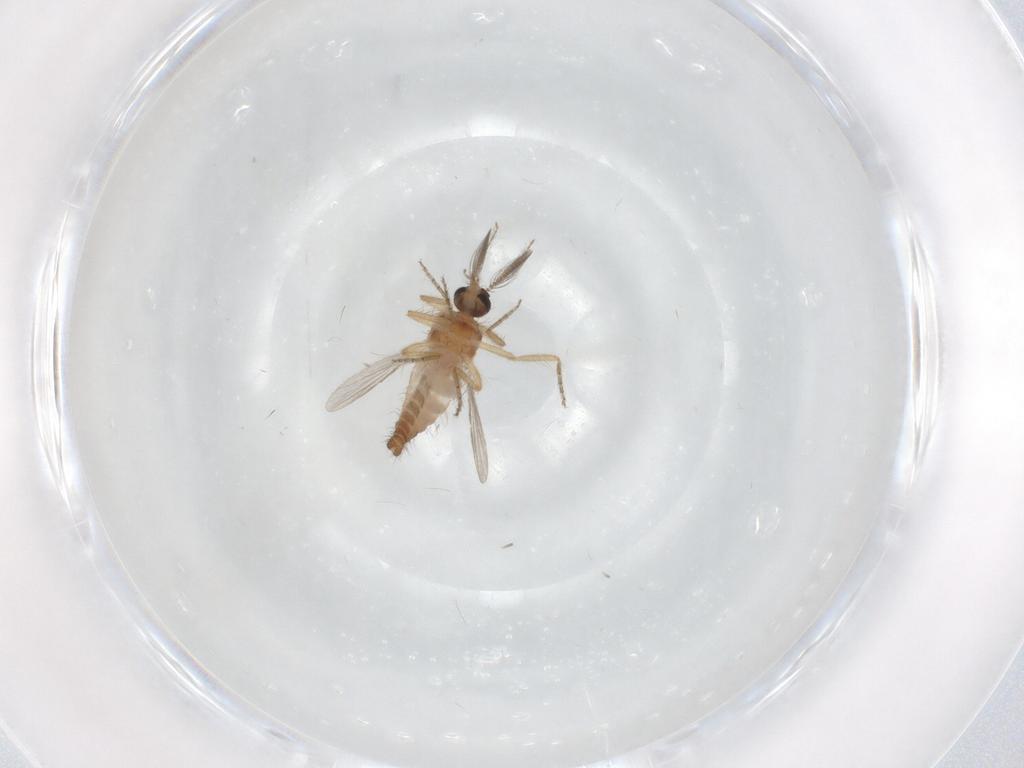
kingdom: Animalia
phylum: Arthropoda
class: Insecta
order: Diptera
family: Ceratopogonidae
